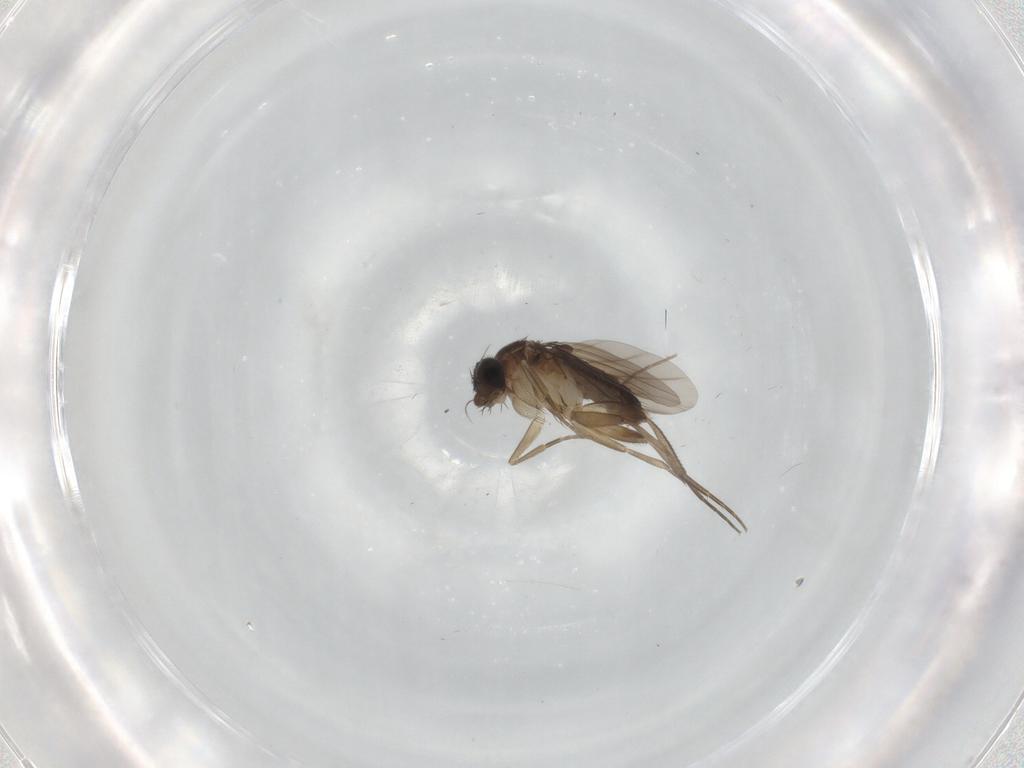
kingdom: Animalia
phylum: Arthropoda
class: Insecta
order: Diptera
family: Phoridae
